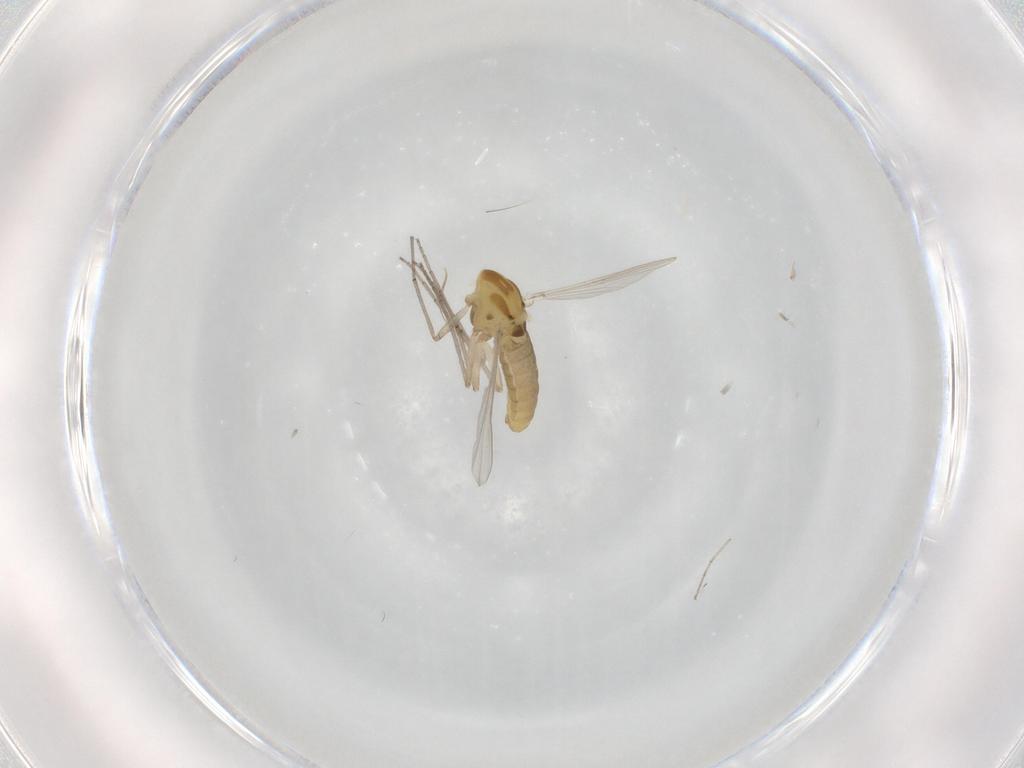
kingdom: Animalia
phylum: Arthropoda
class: Insecta
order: Diptera
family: Chironomidae
